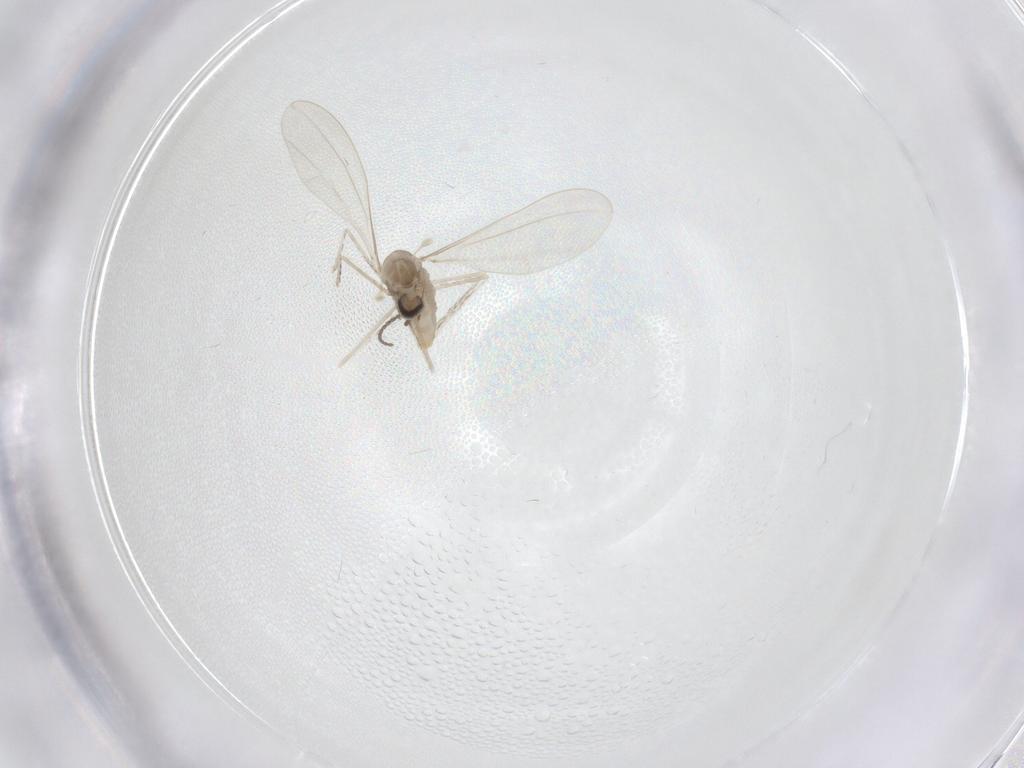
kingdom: Animalia
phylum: Arthropoda
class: Insecta
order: Diptera
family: Cecidomyiidae
